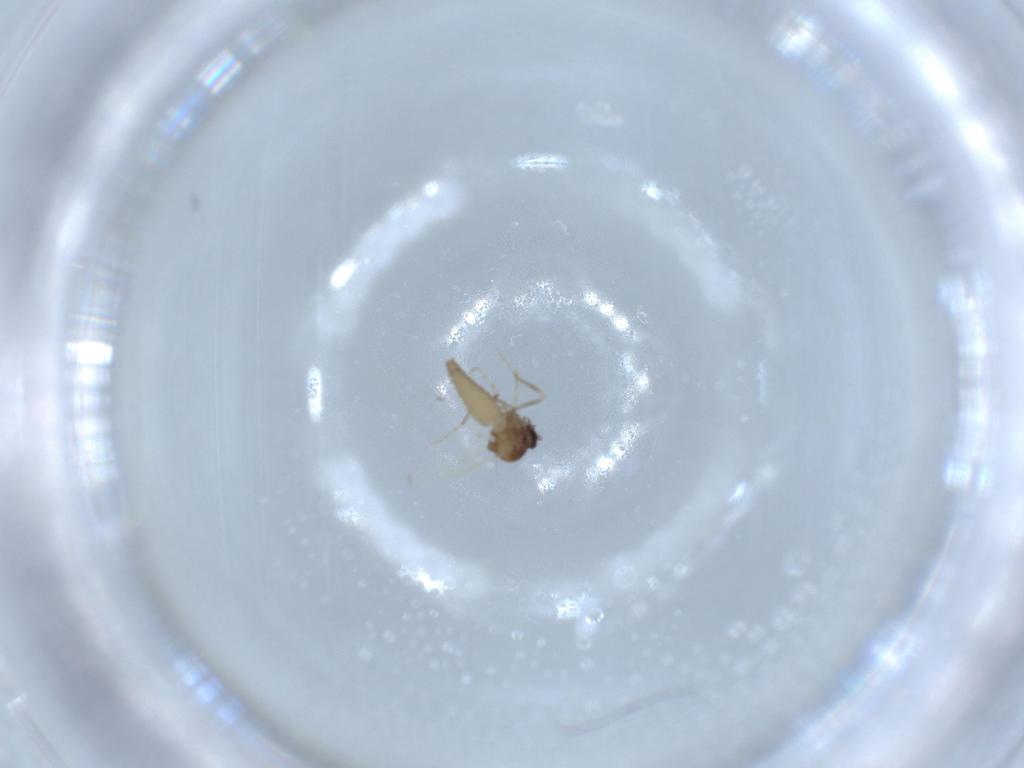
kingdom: Animalia
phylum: Arthropoda
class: Insecta
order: Diptera
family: Ceratopogonidae
